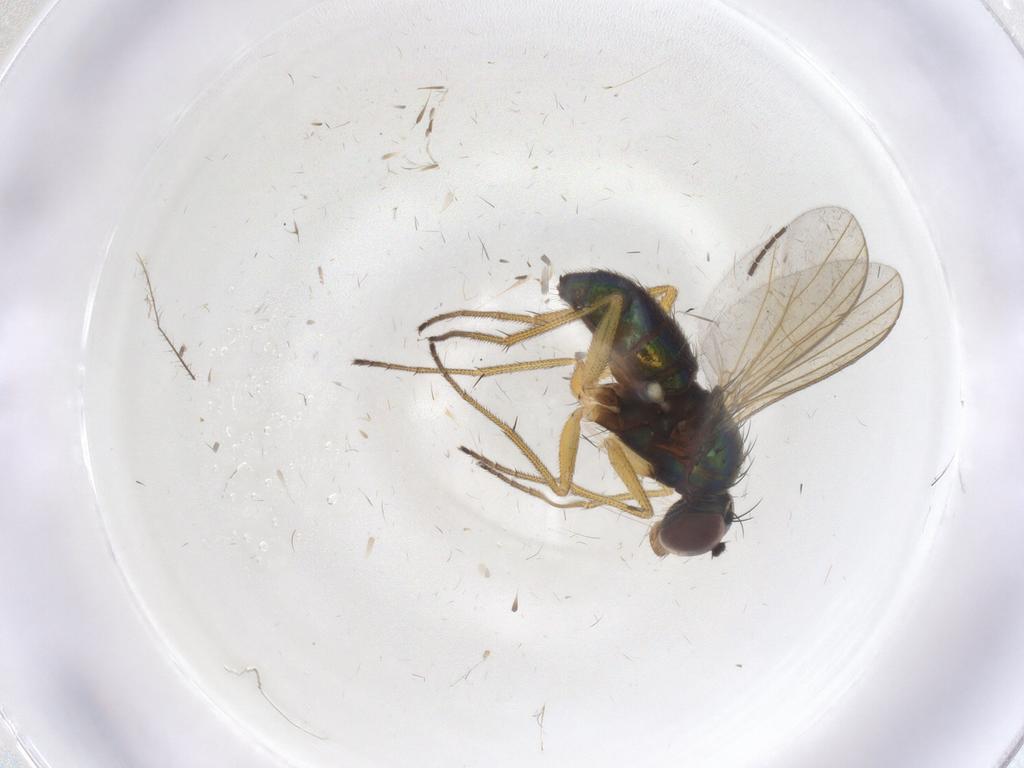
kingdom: Animalia
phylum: Arthropoda
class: Insecta
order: Diptera
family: Dolichopodidae
